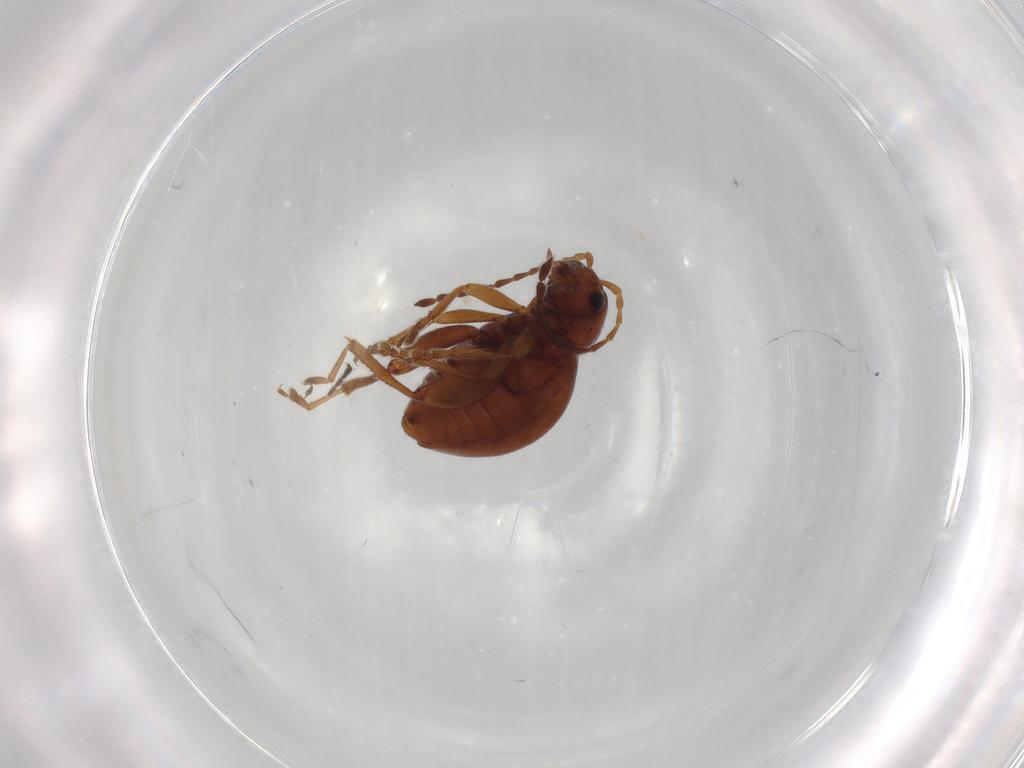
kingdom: Animalia
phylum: Arthropoda
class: Insecta
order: Coleoptera
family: Chrysomelidae
